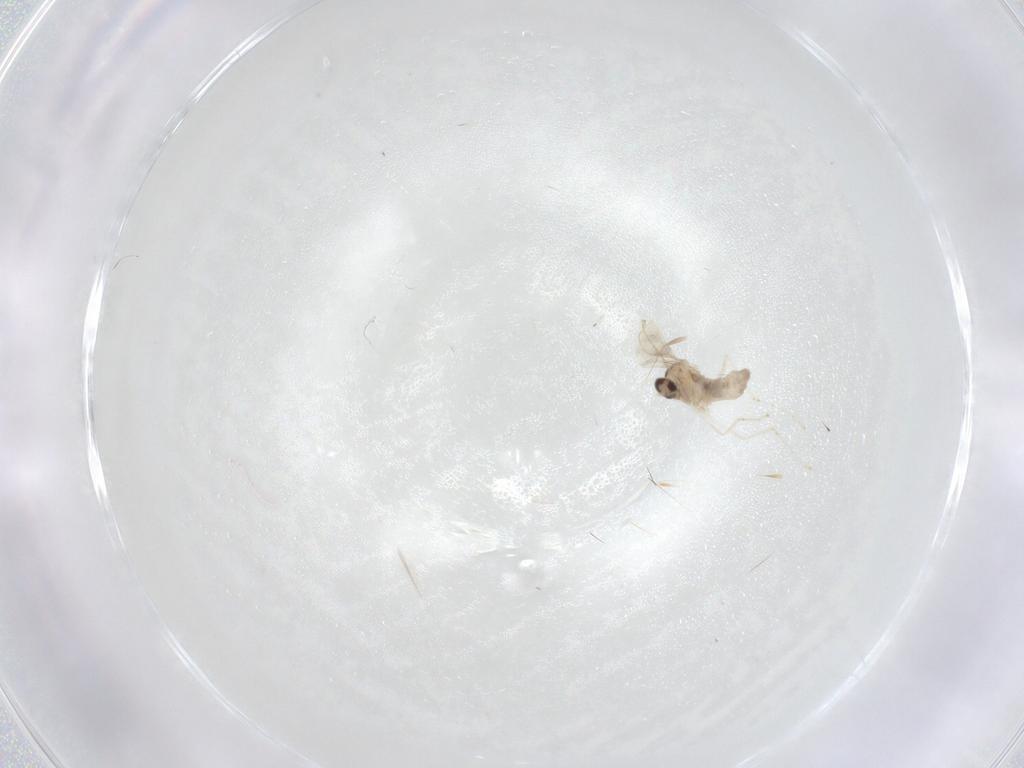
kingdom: Animalia
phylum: Arthropoda
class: Insecta
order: Diptera
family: Cecidomyiidae
